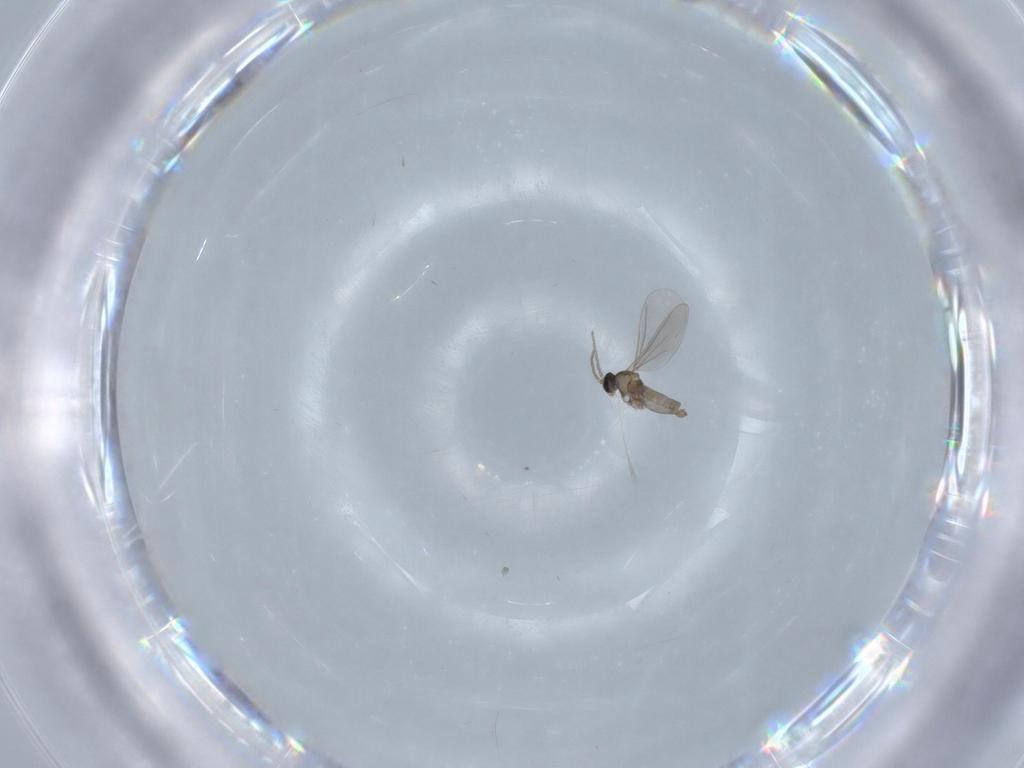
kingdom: Animalia
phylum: Arthropoda
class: Insecta
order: Diptera
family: Cecidomyiidae
